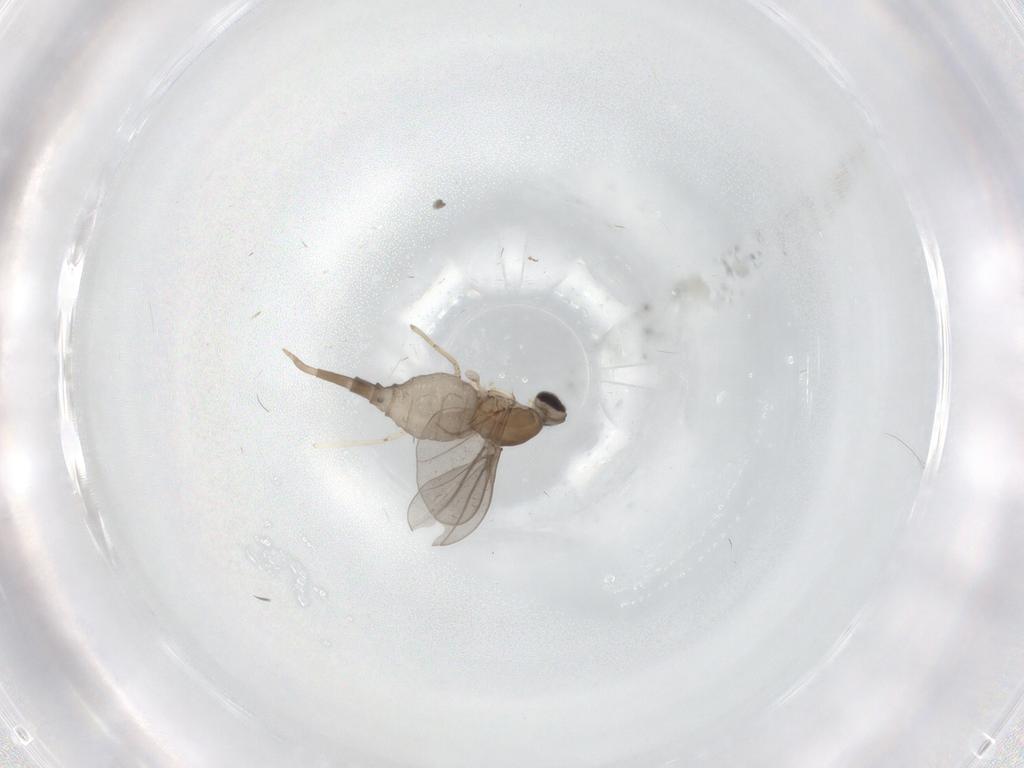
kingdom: Animalia
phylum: Arthropoda
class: Insecta
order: Diptera
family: Cecidomyiidae
